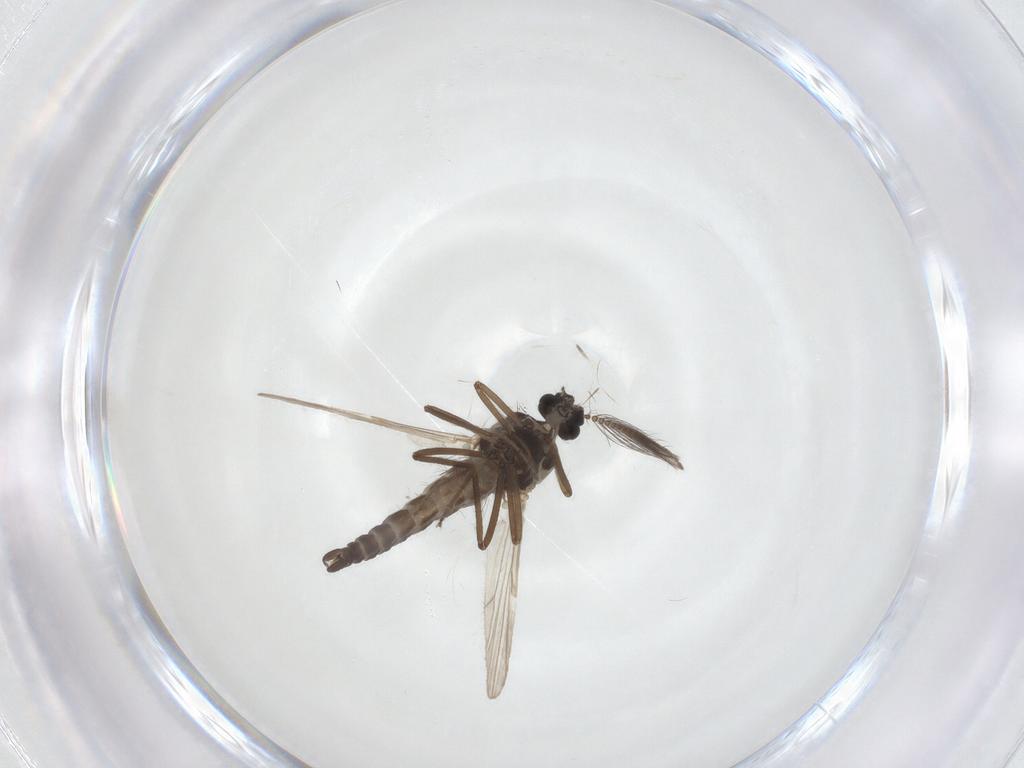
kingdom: Animalia
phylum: Arthropoda
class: Insecta
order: Diptera
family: Ceratopogonidae
